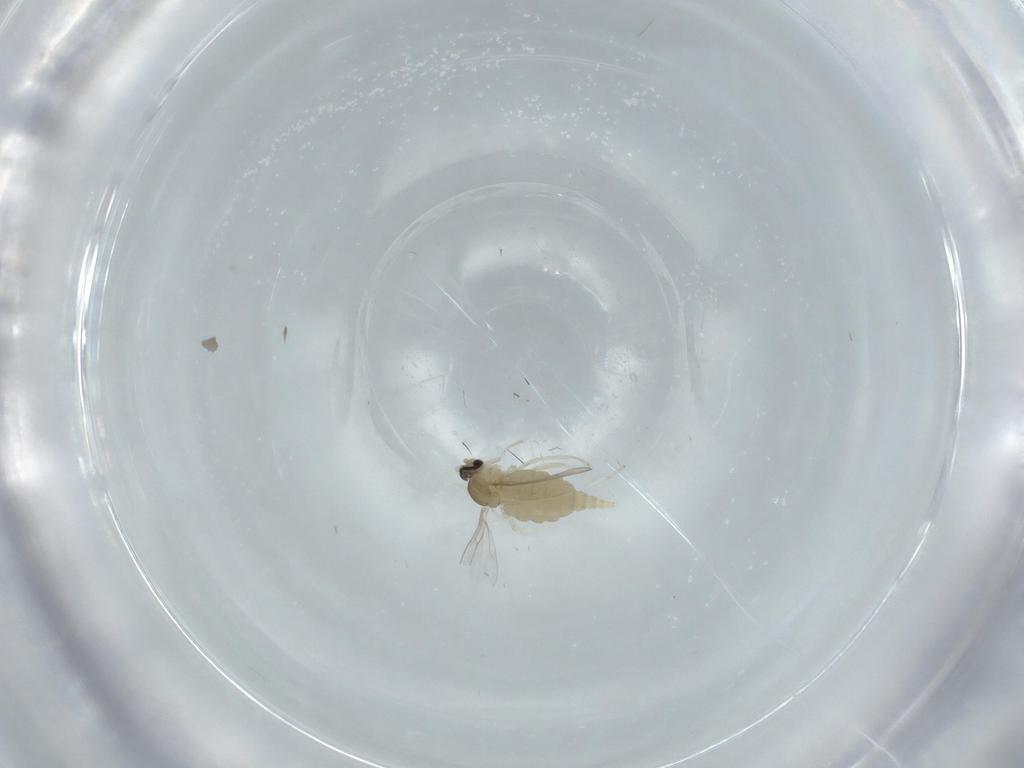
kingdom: Animalia
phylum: Arthropoda
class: Insecta
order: Diptera
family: Cecidomyiidae
